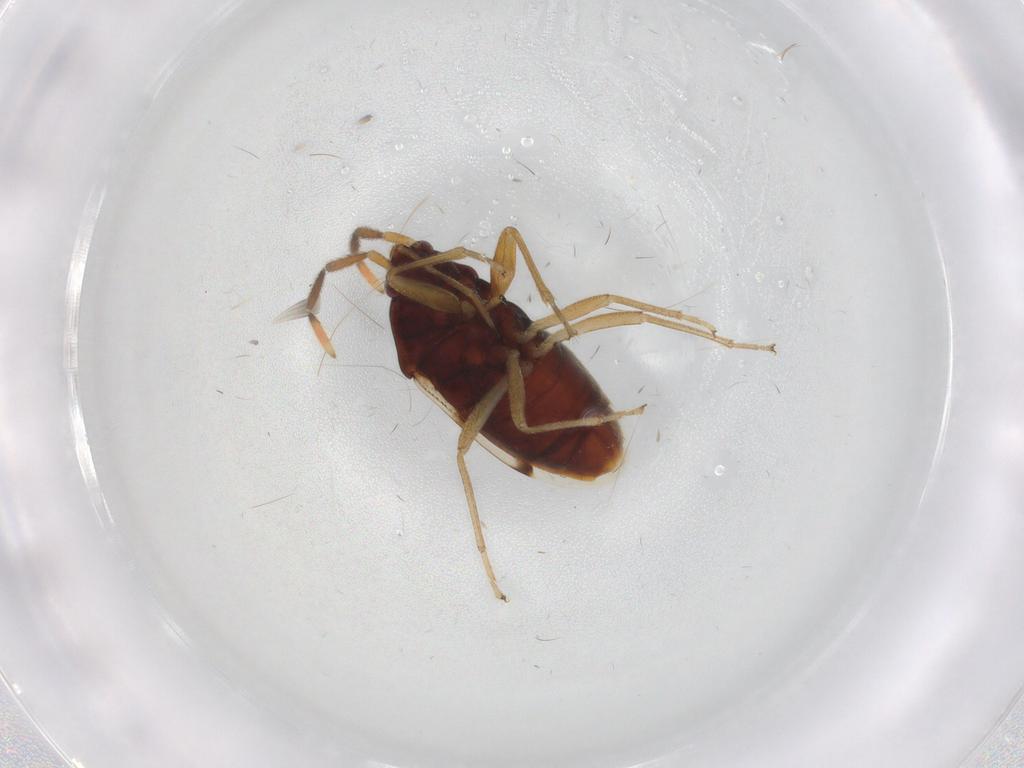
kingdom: Animalia
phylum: Arthropoda
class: Insecta
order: Hemiptera
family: Rhyparochromidae
